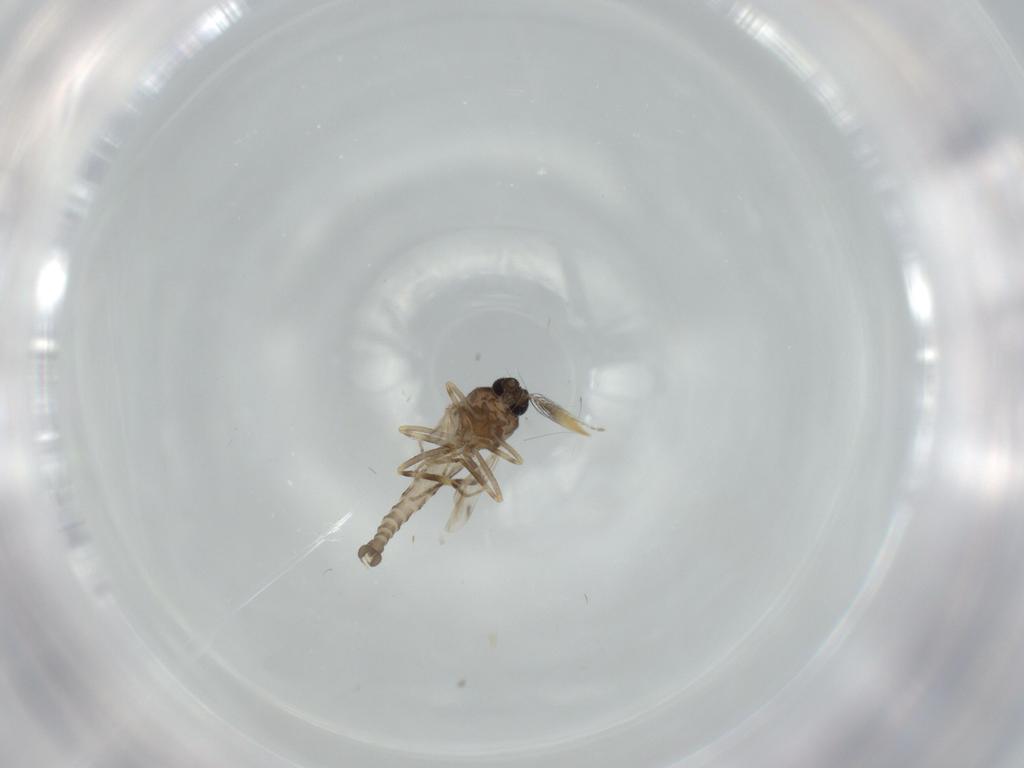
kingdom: Animalia
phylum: Arthropoda
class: Insecta
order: Diptera
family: Ceratopogonidae
